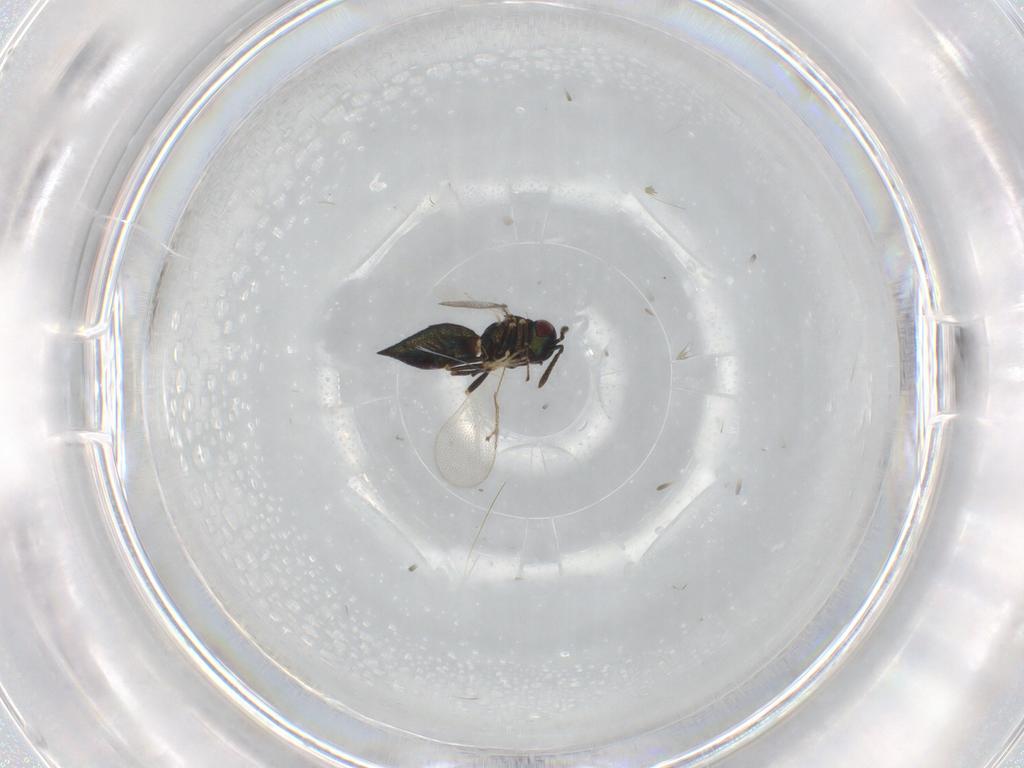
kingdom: Animalia
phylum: Arthropoda
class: Insecta
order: Hymenoptera
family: Pteromalidae
